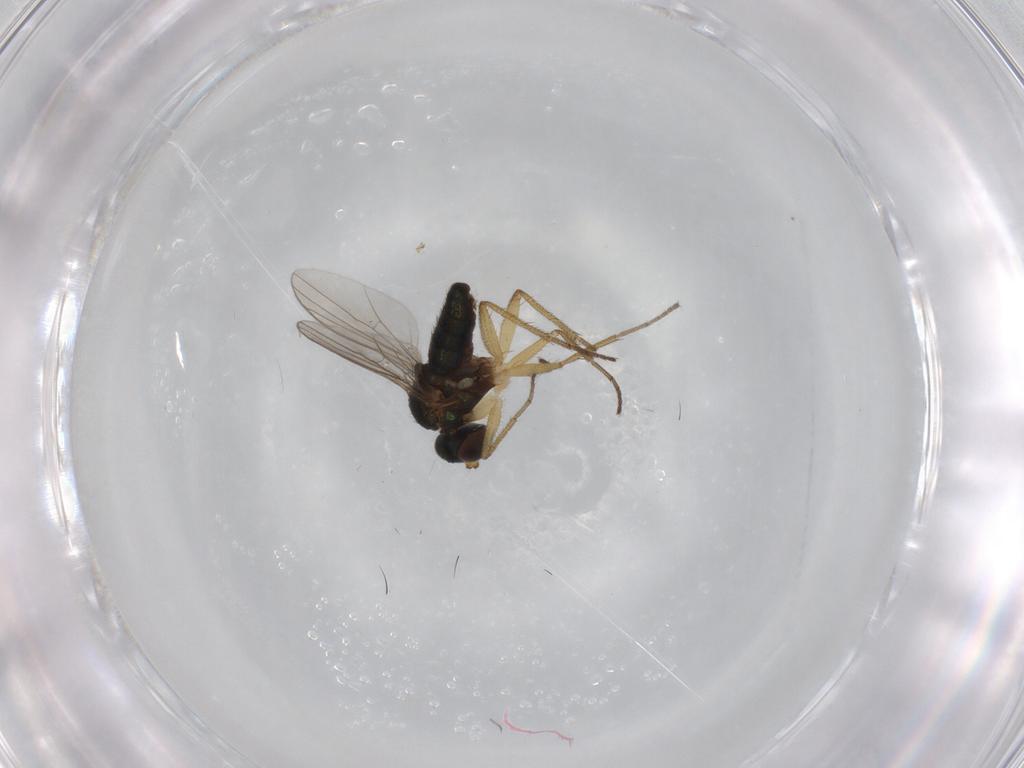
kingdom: Animalia
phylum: Arthropoda
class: Insecta
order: Diptera
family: Dolichopodidae
